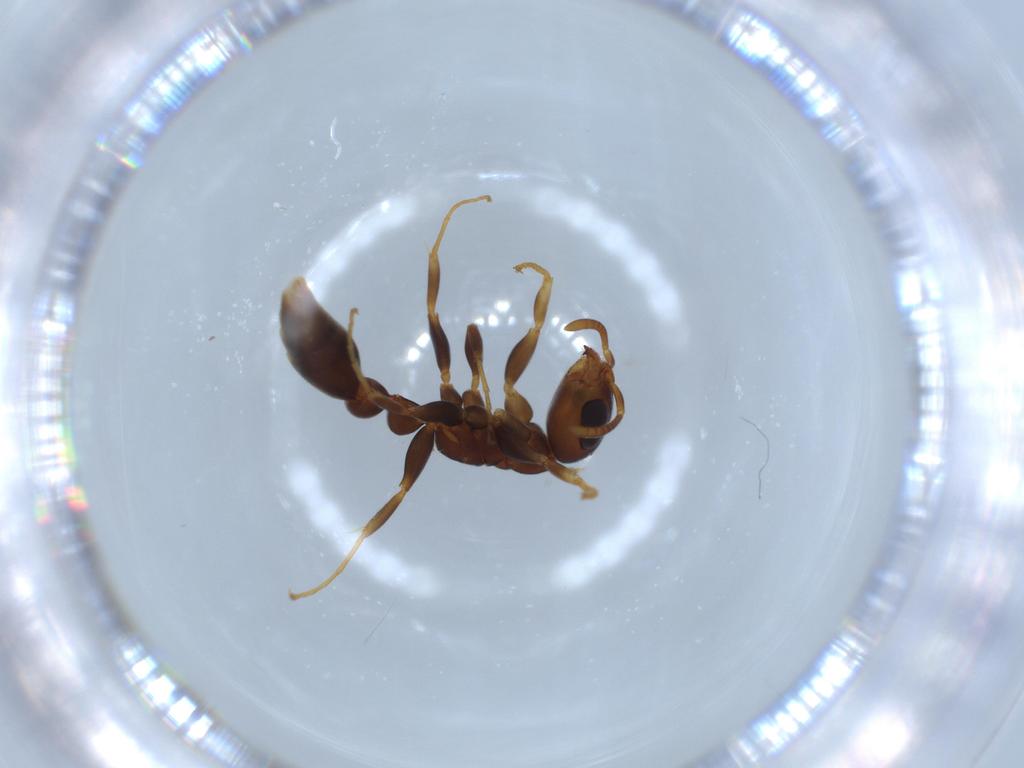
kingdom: Animalia
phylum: Arthropoda
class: Insecta
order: Hymenoptera
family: Formicidae
